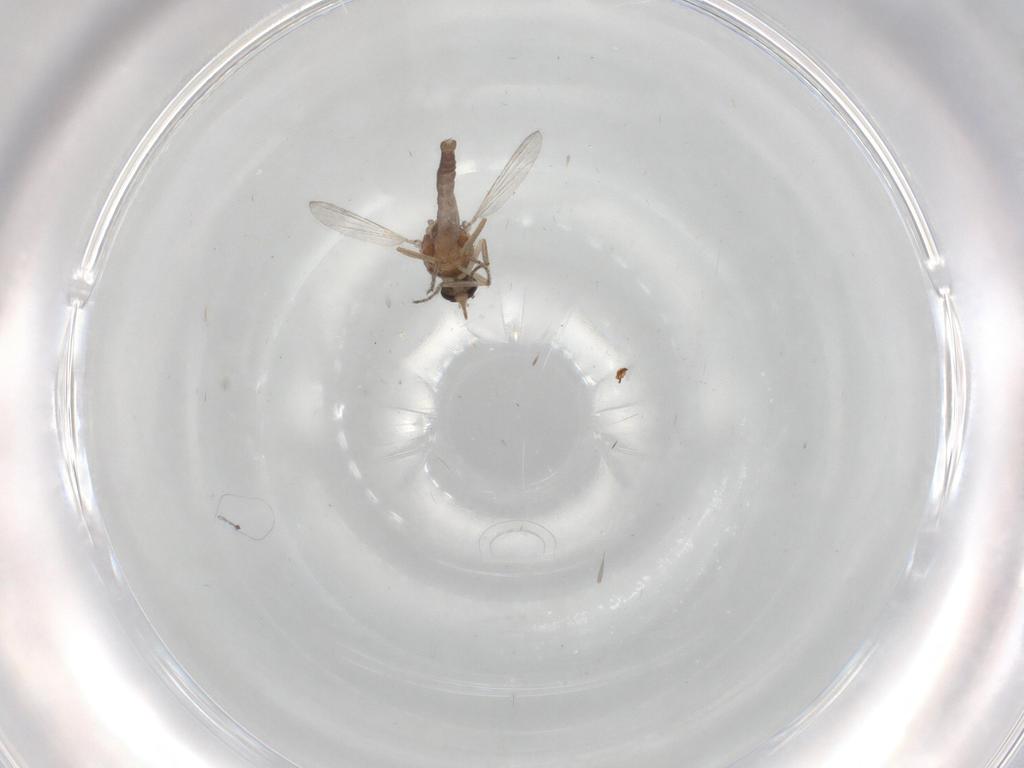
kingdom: Animalia
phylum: Arthropoda
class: Insecta
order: Diptera
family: Ceratopogonidae
